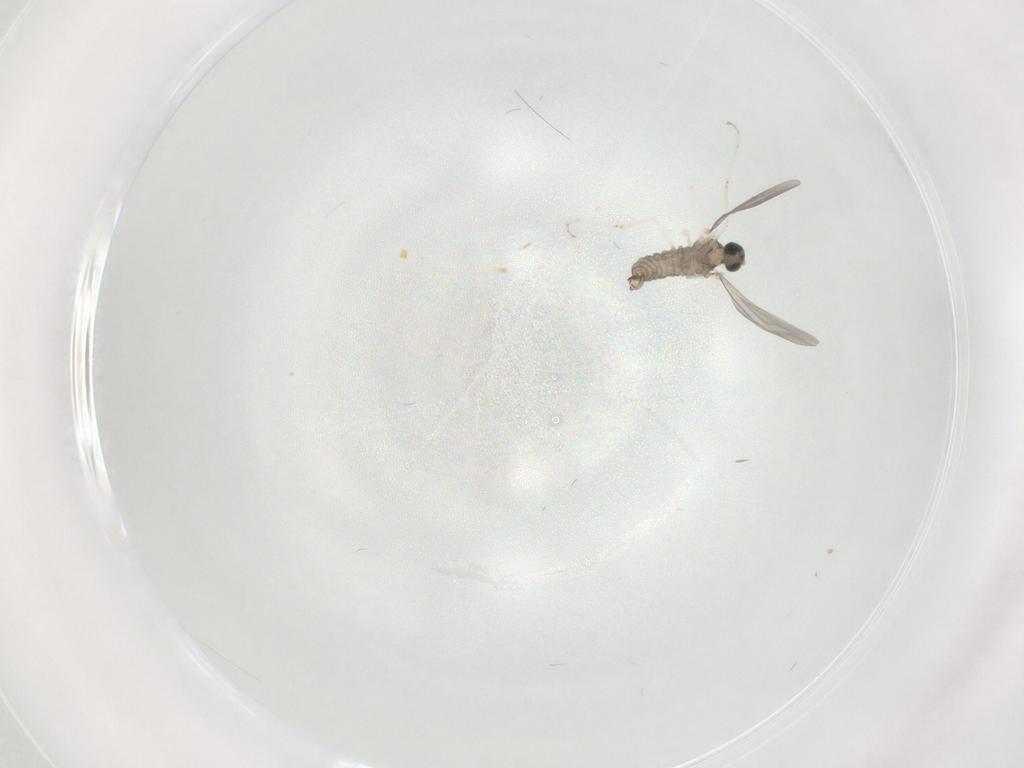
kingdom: Animalia
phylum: Arthropoda
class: Insecta
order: Diptera
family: Cecidomyiidae
